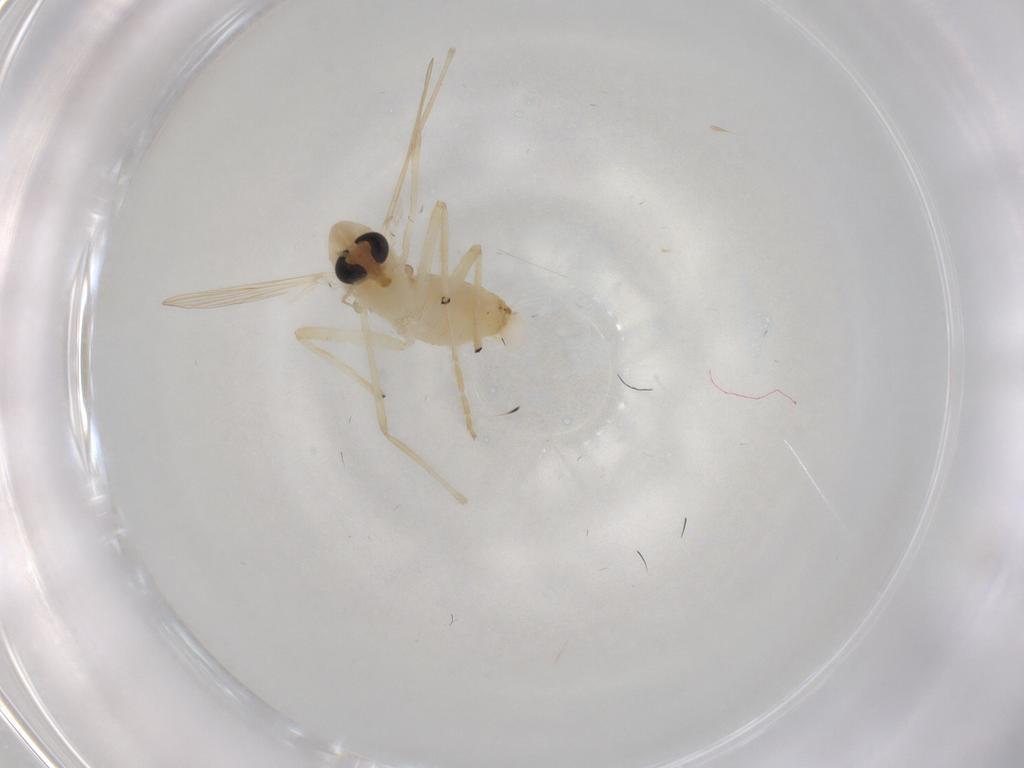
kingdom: Animalia
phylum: Arthropoda
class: Insecta
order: Diptera
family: Chironomidae
